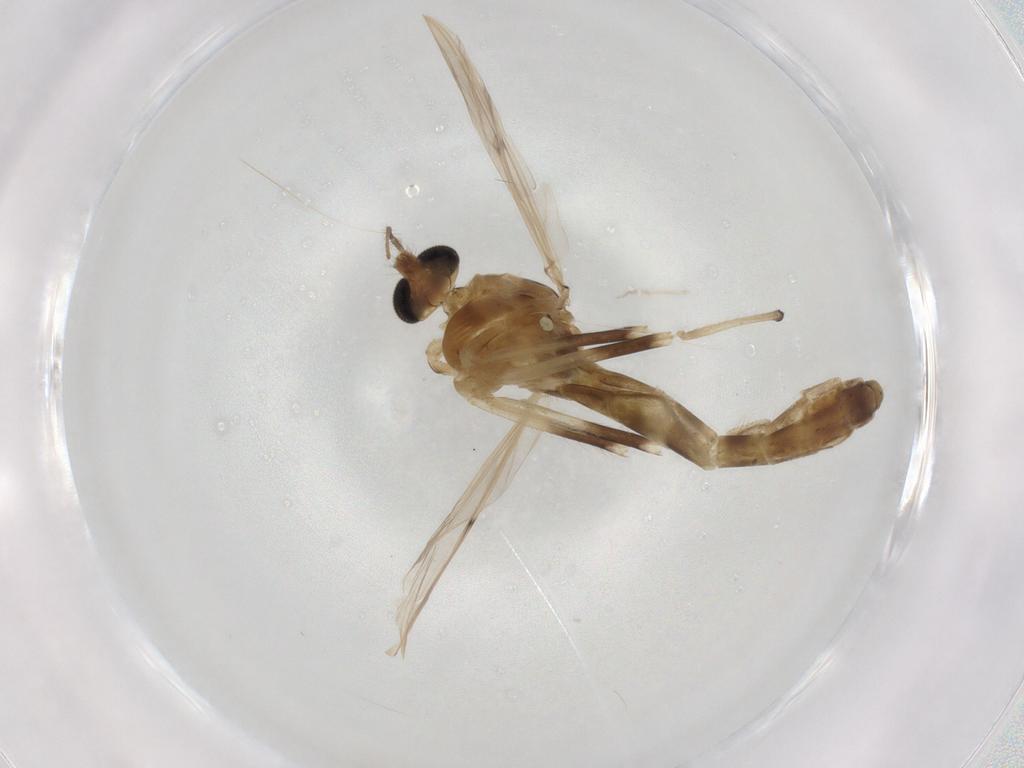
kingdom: Animalia
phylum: Arthropoda
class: Insecta
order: Diptera
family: Chironomidae
